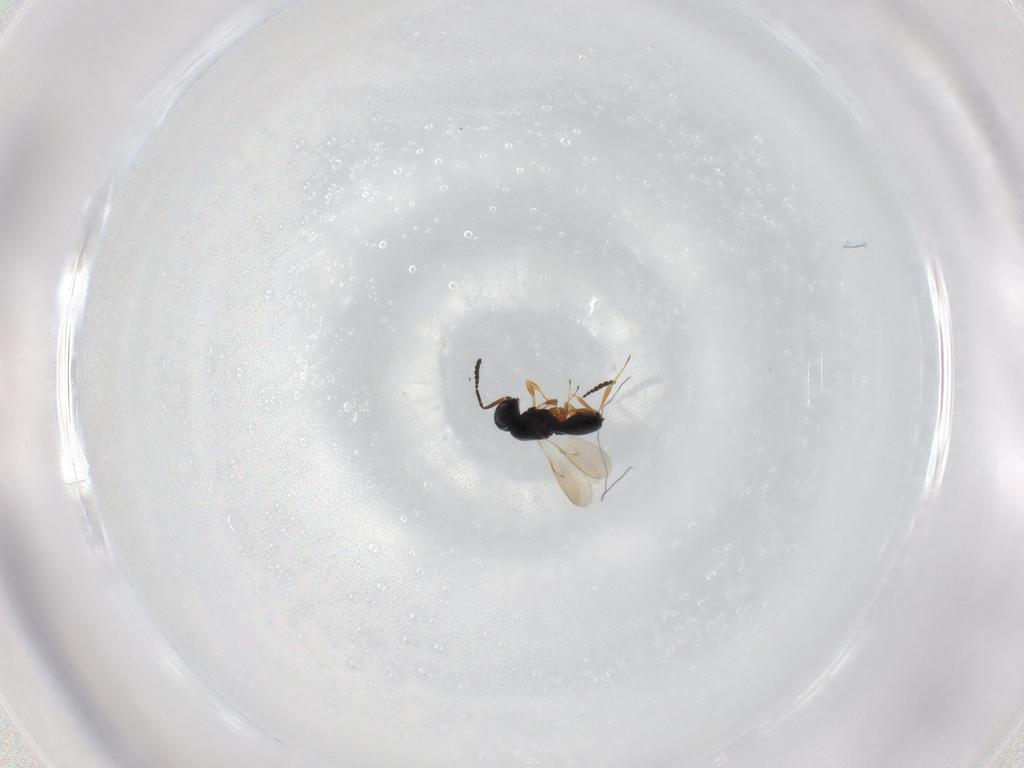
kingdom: Animalia
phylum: Arthropoda
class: Insecta
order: Hymenoptera
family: Scelionidae
